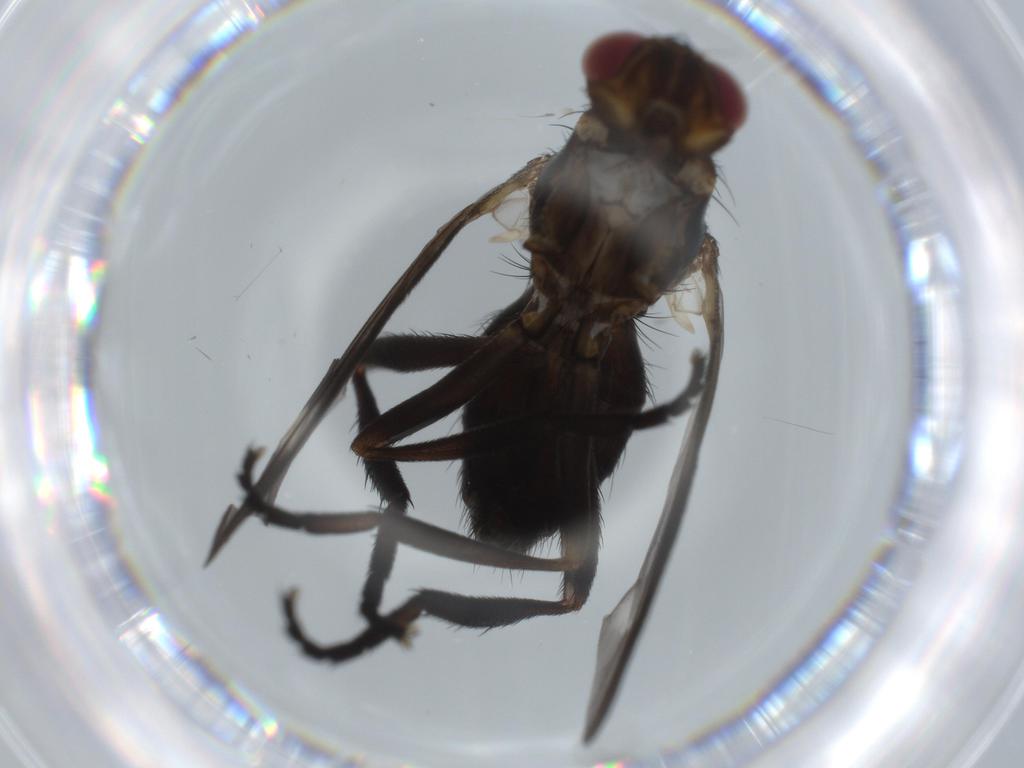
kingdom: Animalia
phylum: Arthropoda
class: Insecta
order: Diptera
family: Calliphoridae
